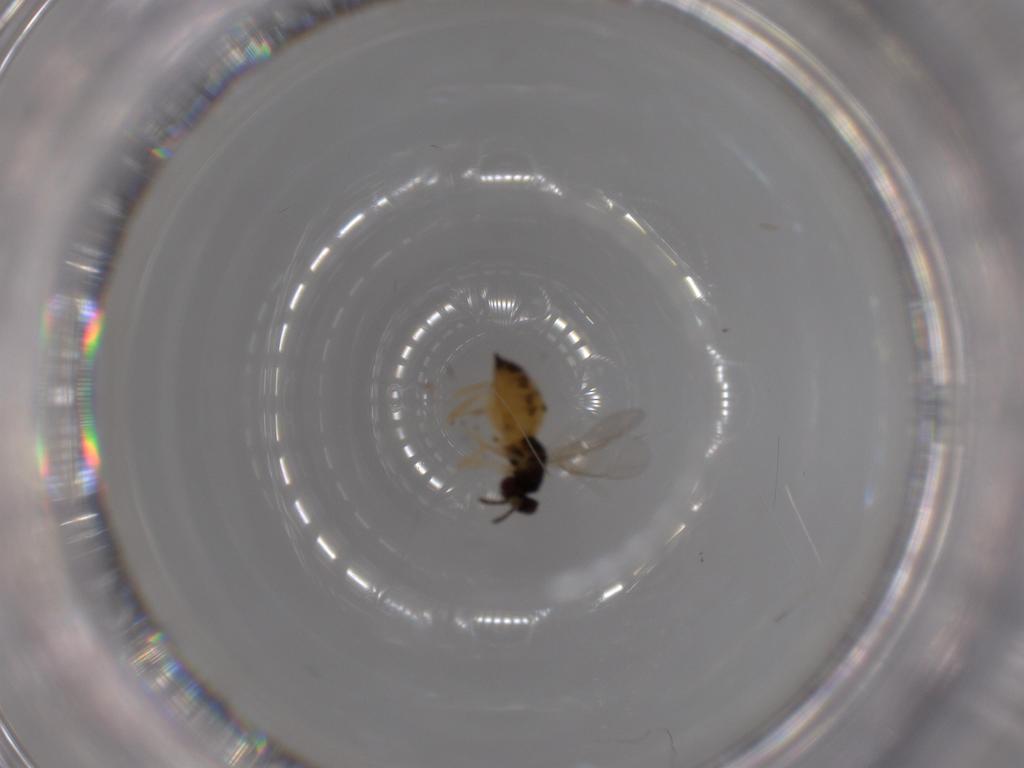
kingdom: Animalia
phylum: Arthropoda
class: Insecta
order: Hymenoptera
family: Eulophidae
